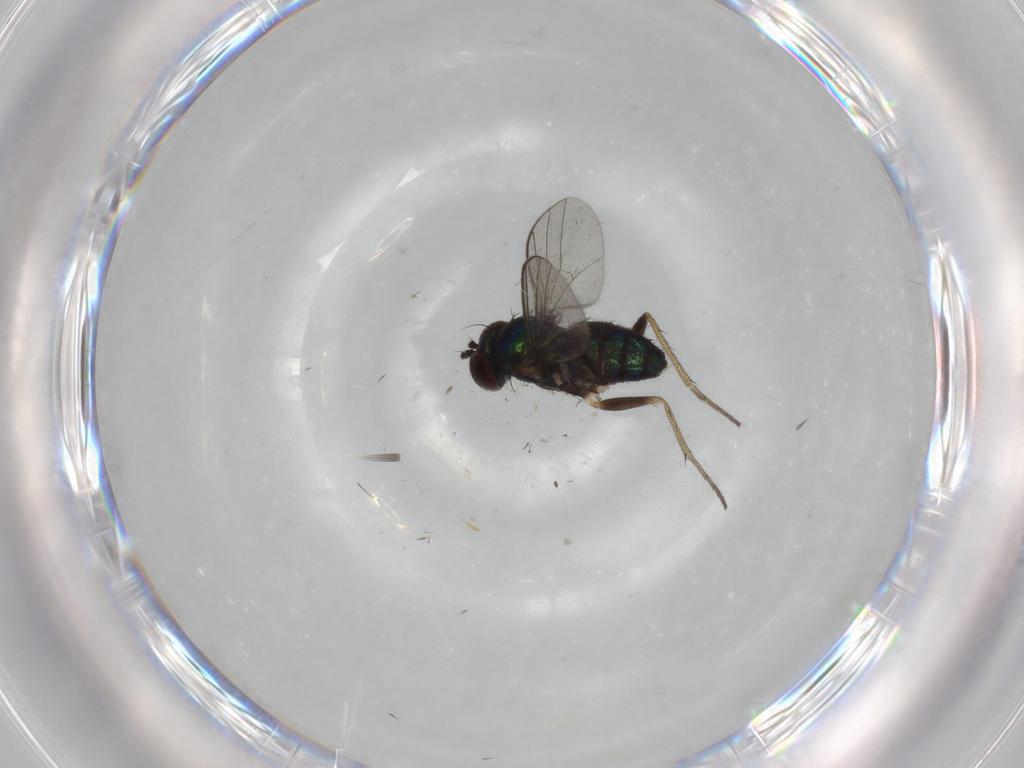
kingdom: Animalia
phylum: Arthropoda
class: Insecta
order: Diptera
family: Dolichopodidae
